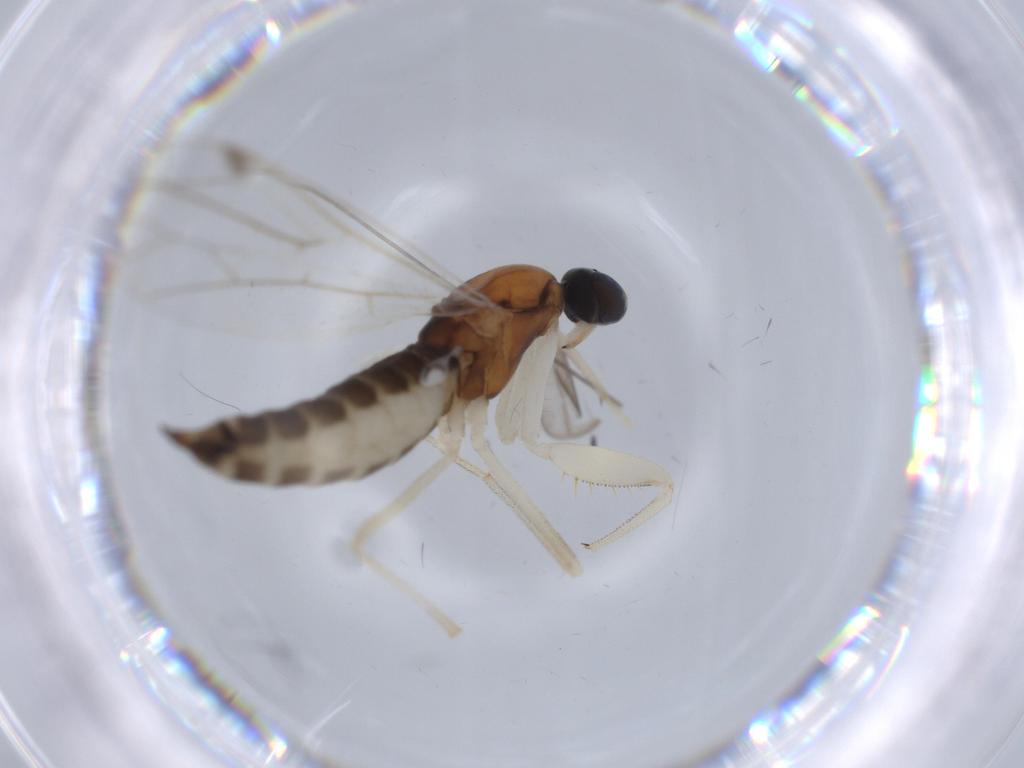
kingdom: Animalia
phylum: Arthropoda
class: Insecta
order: Diptera
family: Empididae
